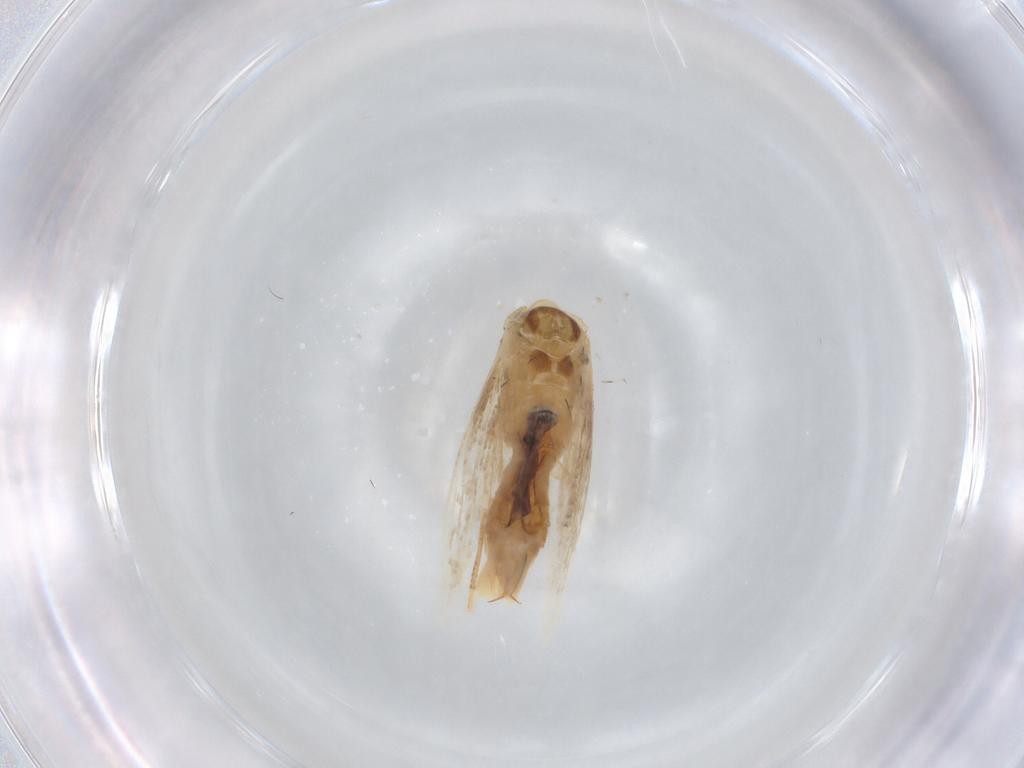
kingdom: Animalia
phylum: Arthropoda
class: Insecta
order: Lepidoptera
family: Noctuidae
